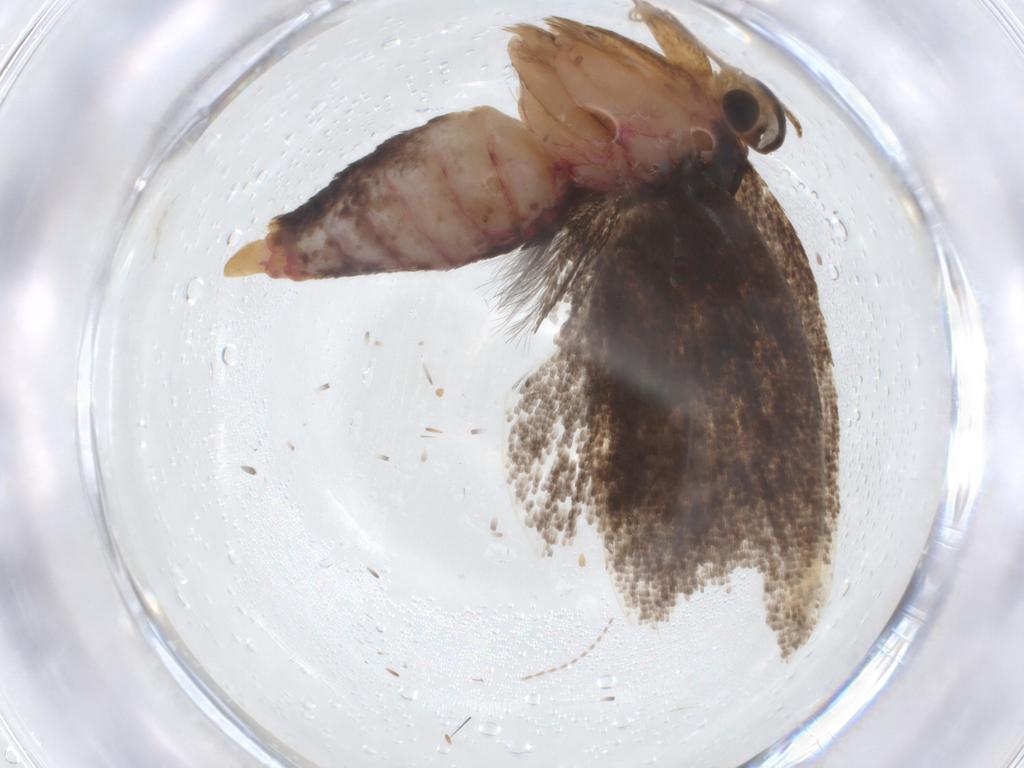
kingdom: Animalia
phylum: Arthropoda
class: Insecta
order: Lepidoptera
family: Gelechiidae
